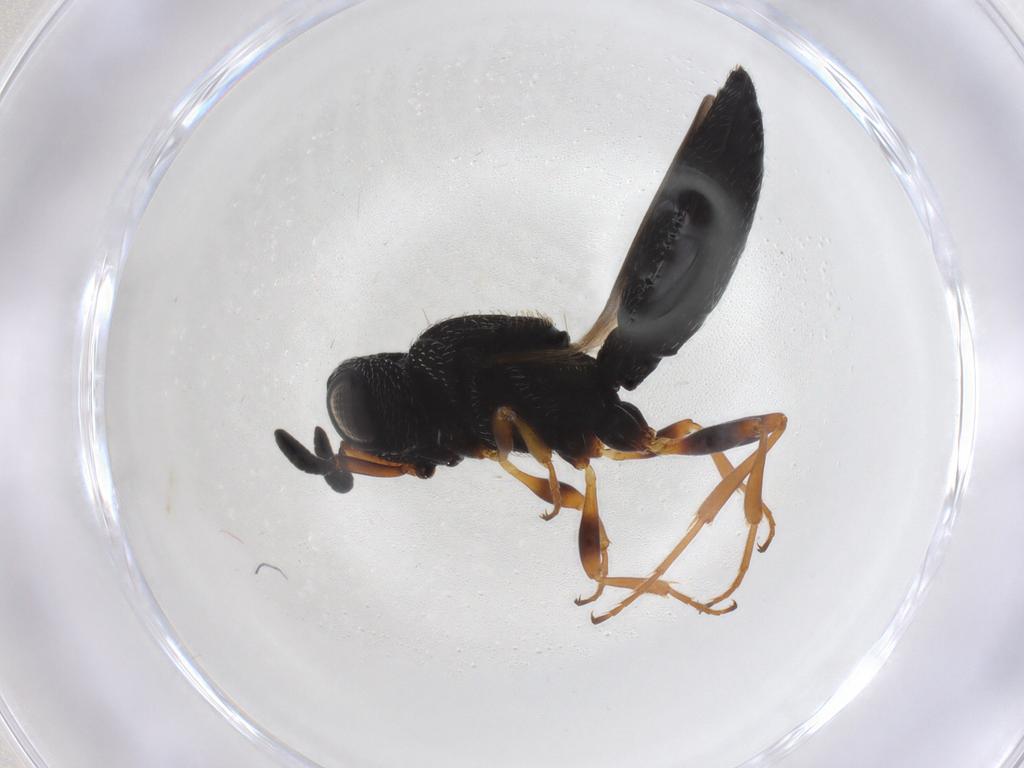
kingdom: Animalia
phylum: Arthropoda
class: Insecta
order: Hymenoptera
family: Scelionidae
